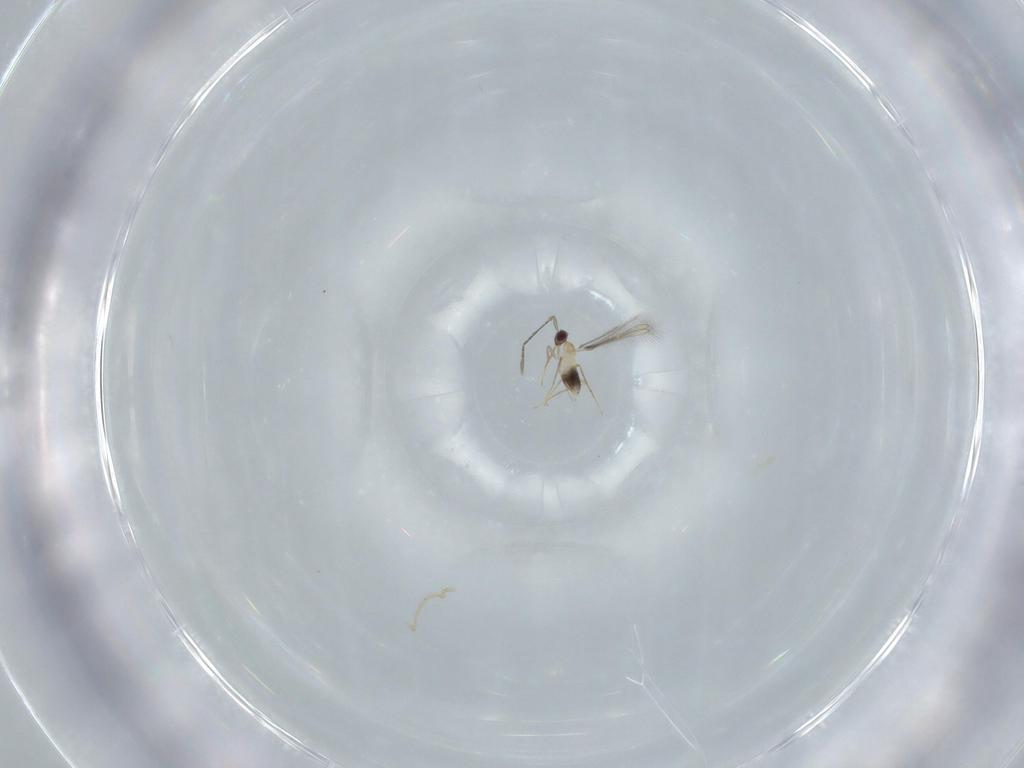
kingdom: Animalia
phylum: Arthropoda
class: Insecta
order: Hymenoptera
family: Mymaridae
